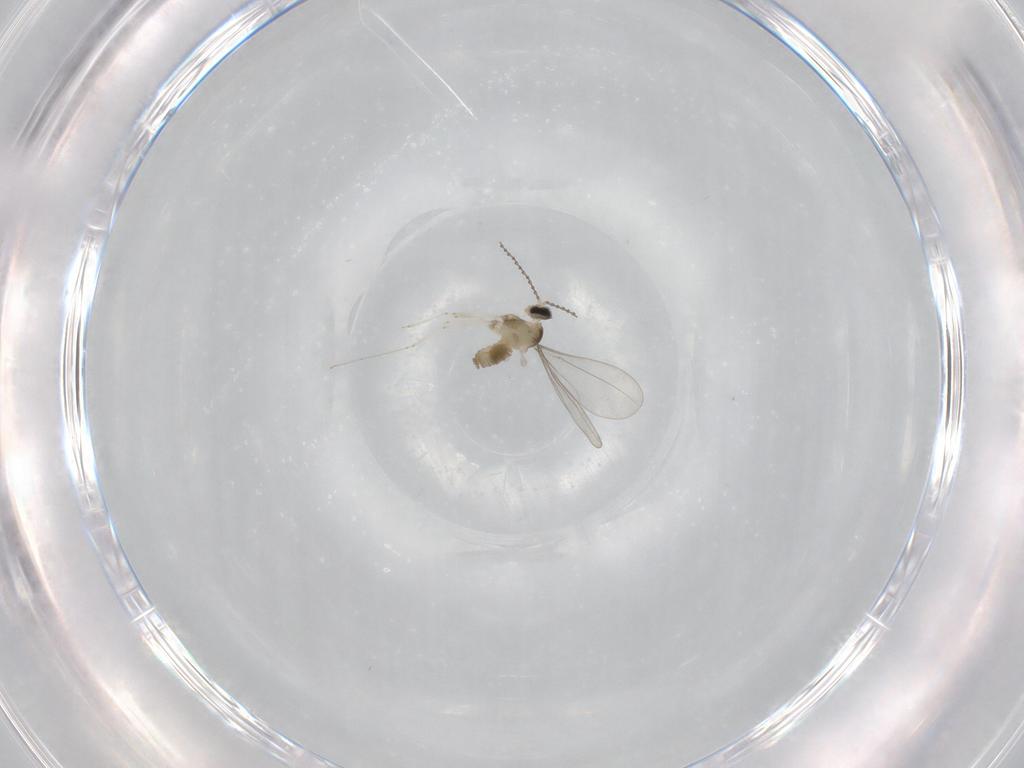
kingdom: Animalia
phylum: Arthropoda
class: Insecta
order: Diptera
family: Cecidomyiidae
